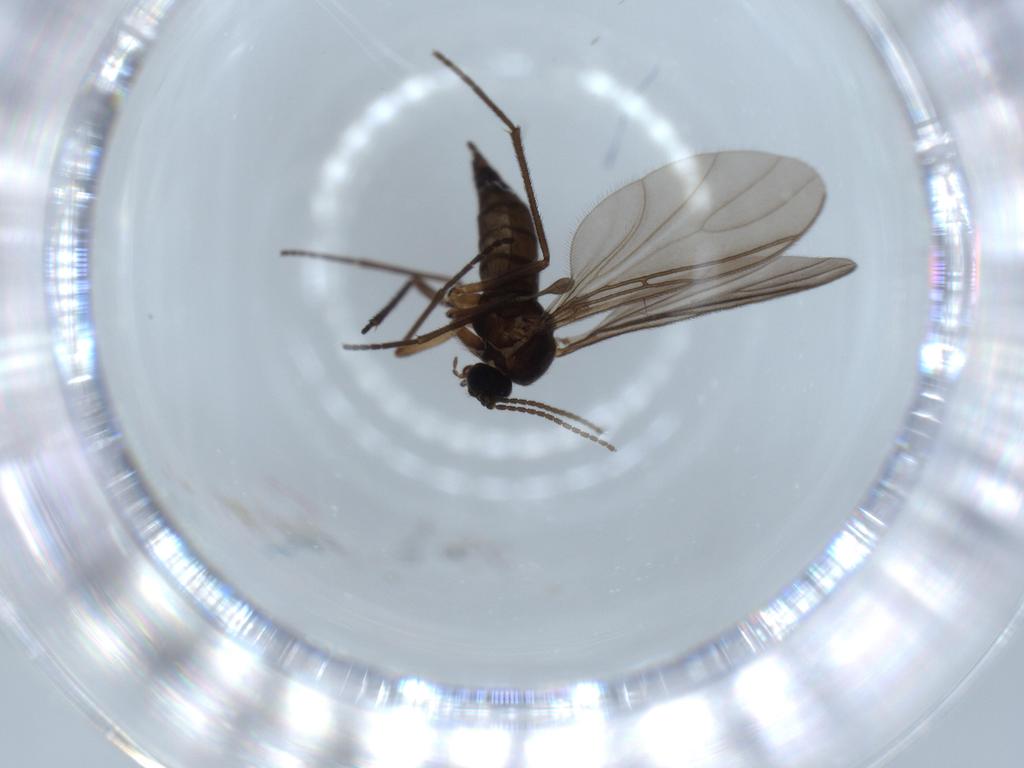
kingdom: Animalia
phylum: Arthropoda
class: Insecta
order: Diptera
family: Sciaridae
